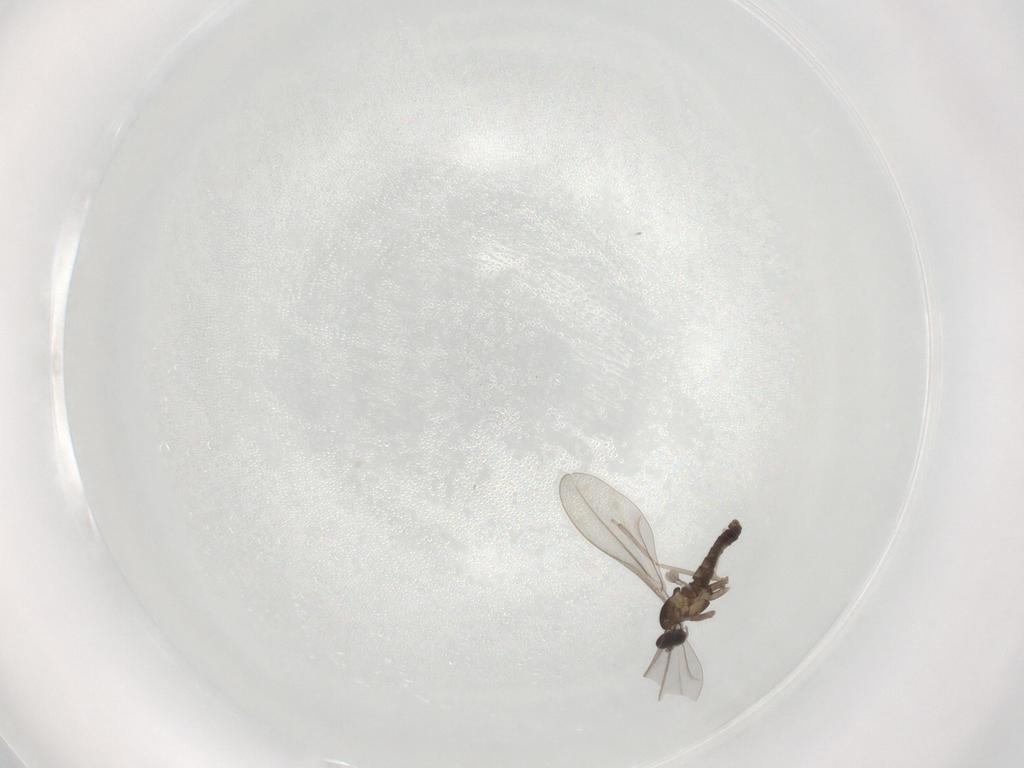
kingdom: Animalia
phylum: Arthropoda
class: Insecta
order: Diptera
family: Cecidomyiidae
